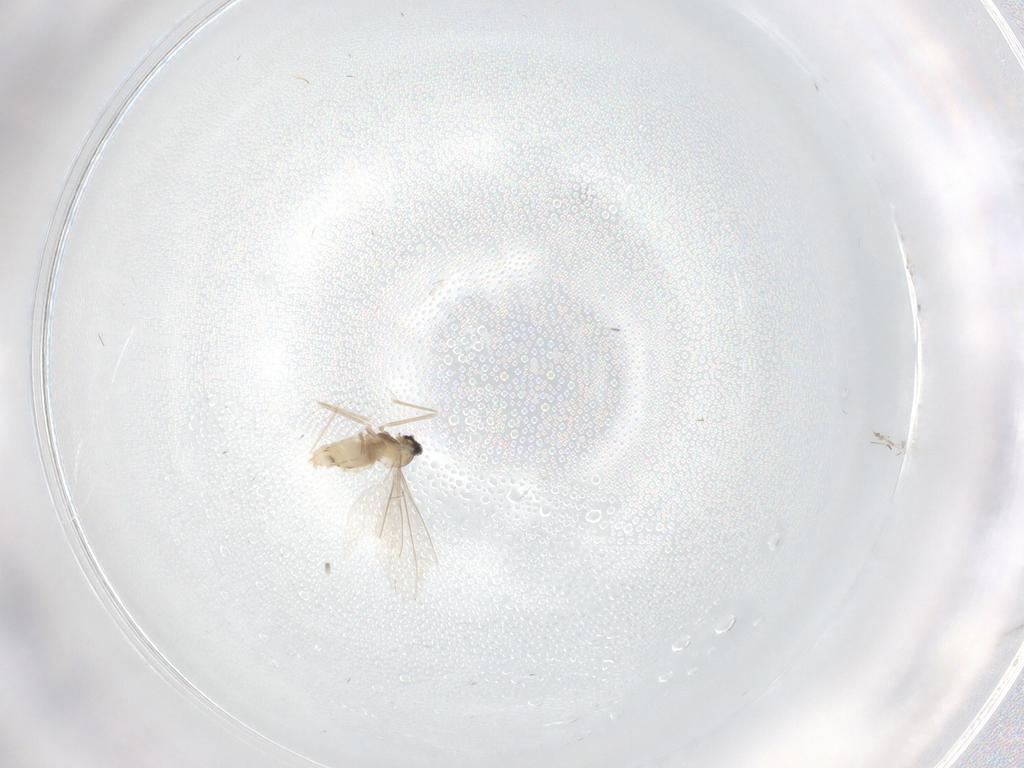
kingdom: Animalia
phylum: Arthropoda
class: Insecta
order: Diptera
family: Cecidomyiidae
